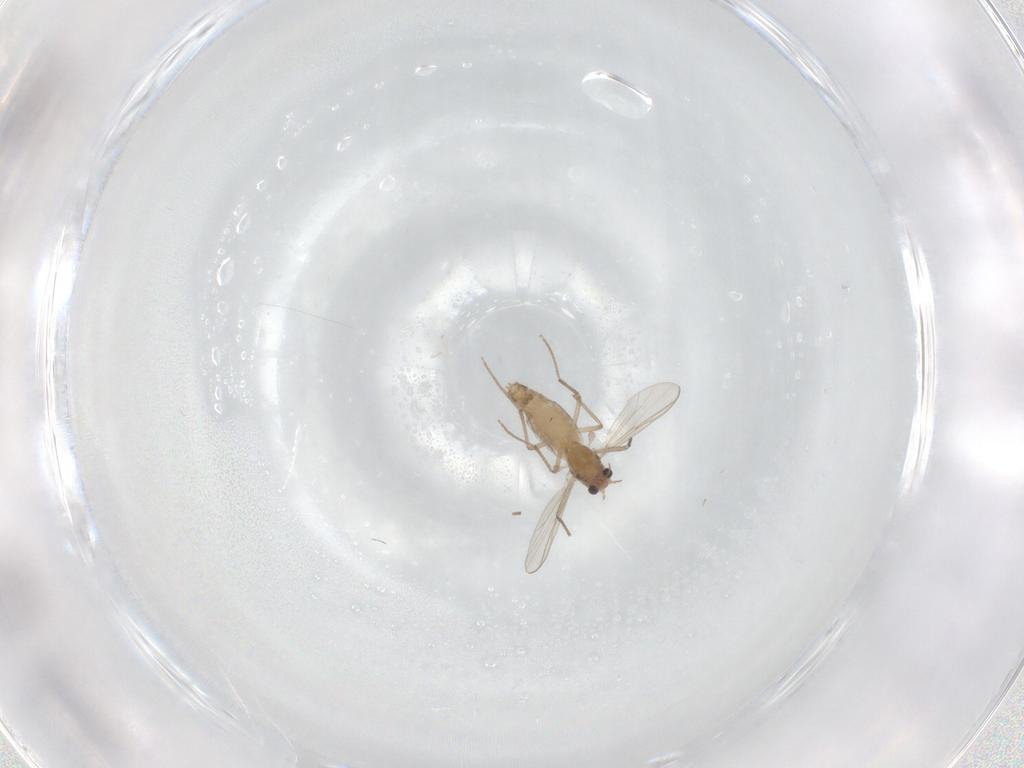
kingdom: Animalia
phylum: Arthropoda
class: Insecta
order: Diptera
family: Chironomidae
